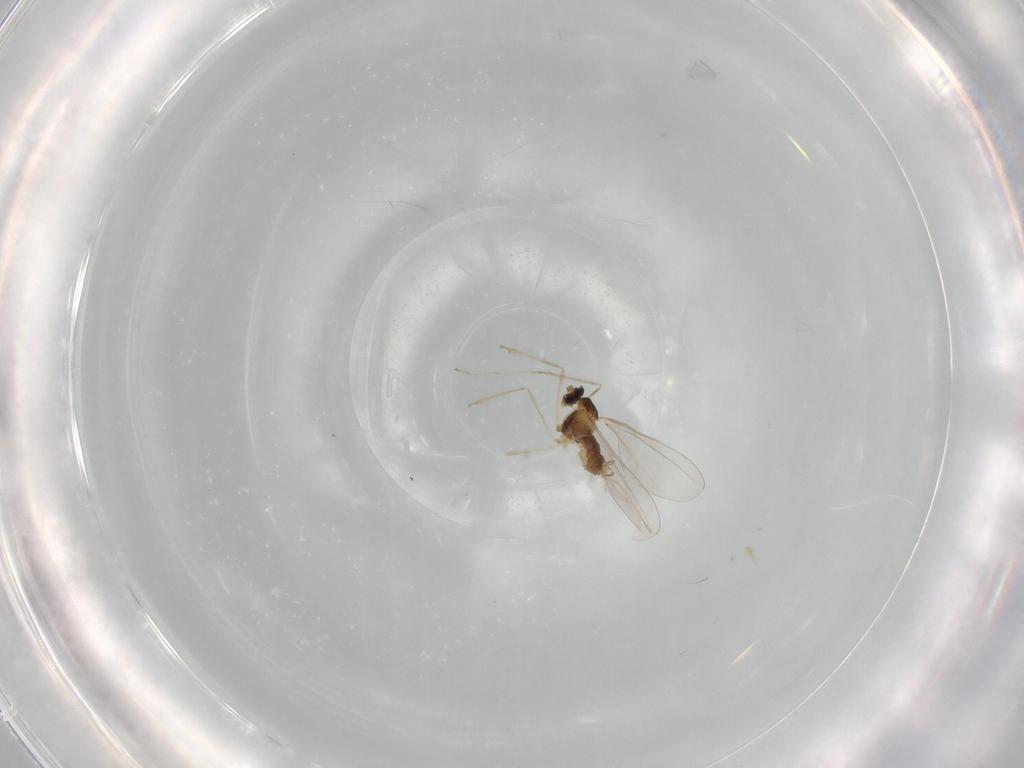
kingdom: Animalia
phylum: Arthropoda
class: Insecta
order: Diptera
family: Cecidomyiidae
